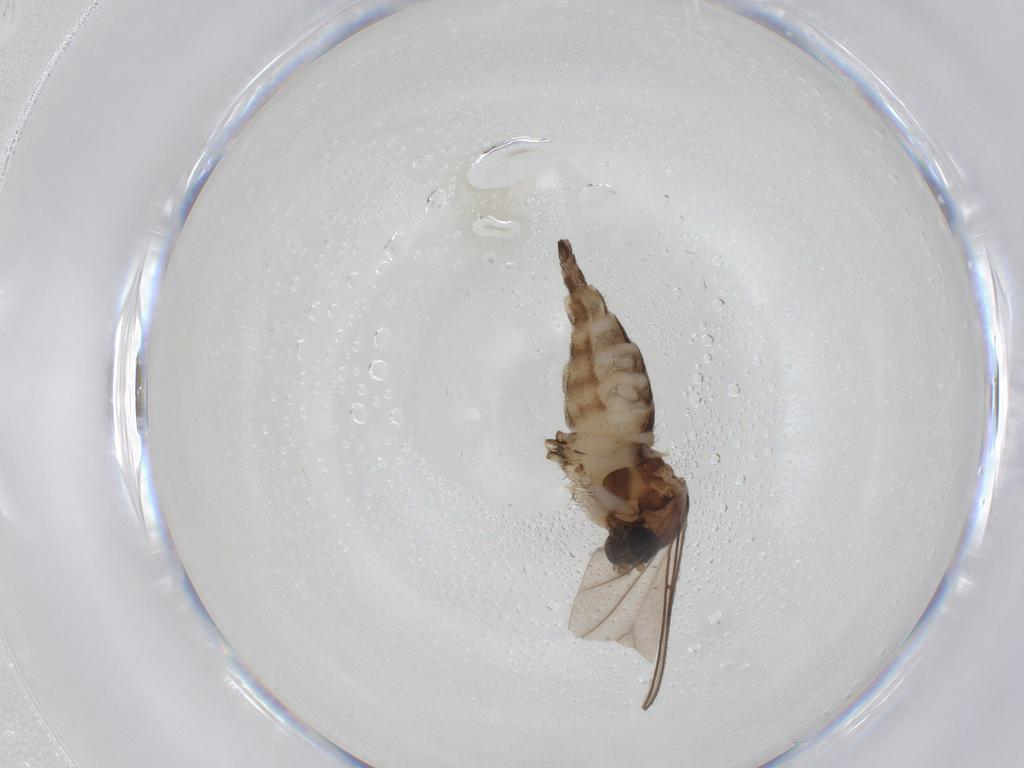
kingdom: Animalia
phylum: Arthropoda
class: Insecta
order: Diptera
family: Sciaridae
